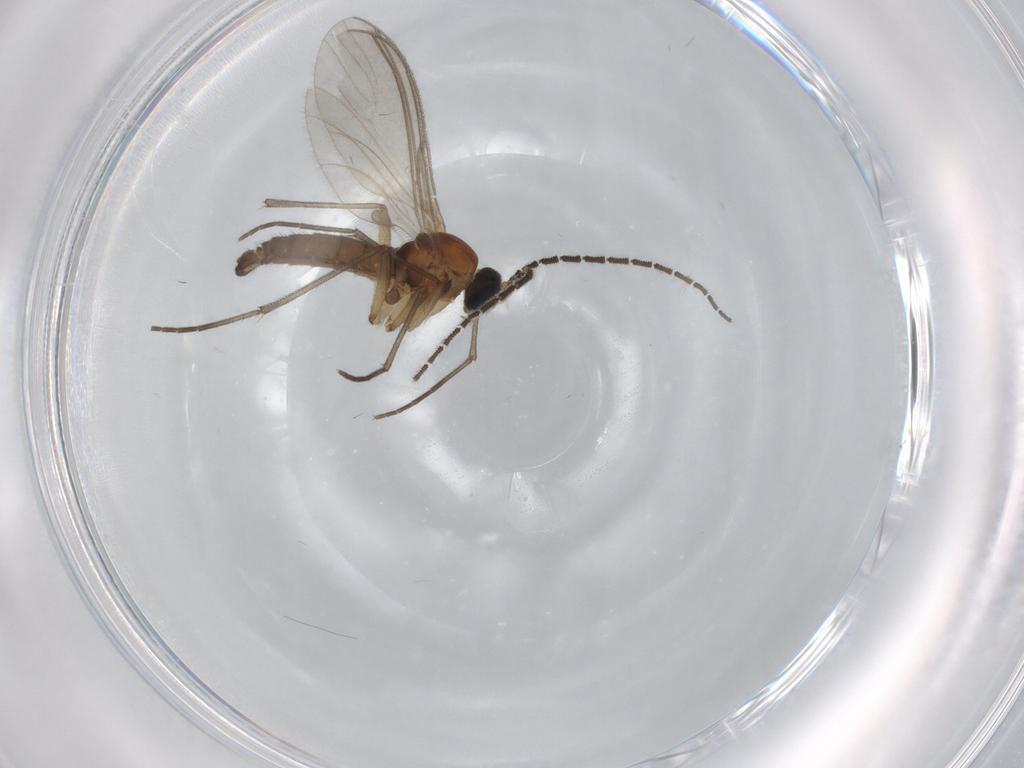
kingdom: Animalia
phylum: Arthropoda
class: Insecta
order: Diptera
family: Sciaridae
